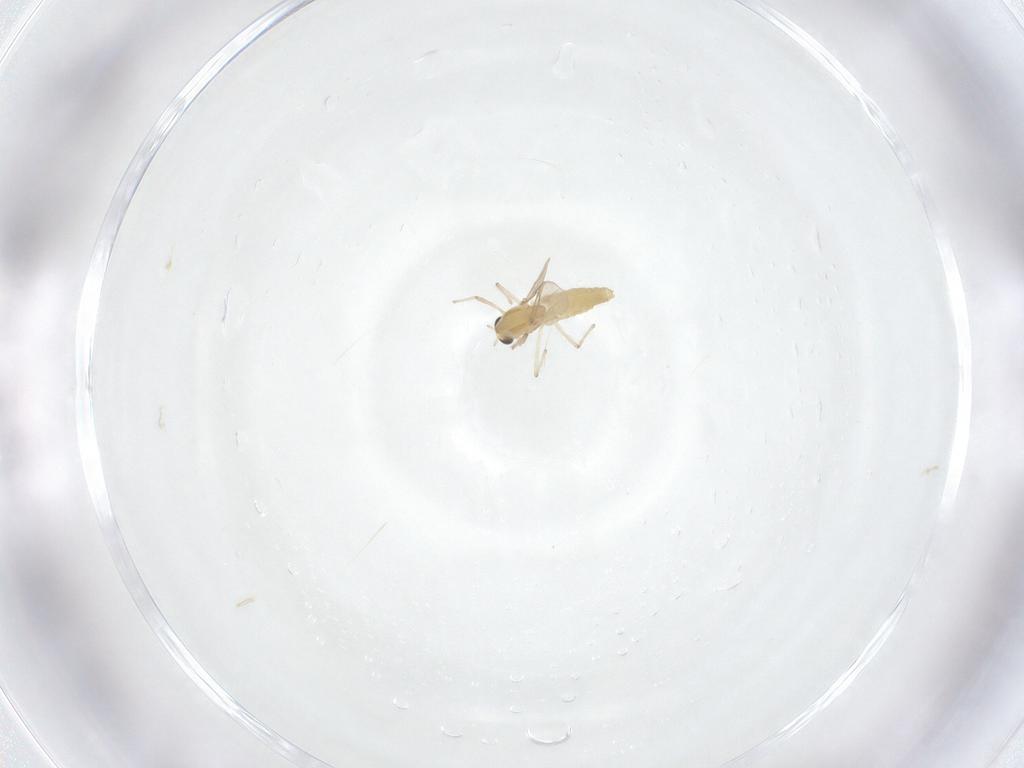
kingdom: Animalia
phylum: Arthropoda
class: Insecta
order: Diptera
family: Chironomidae
